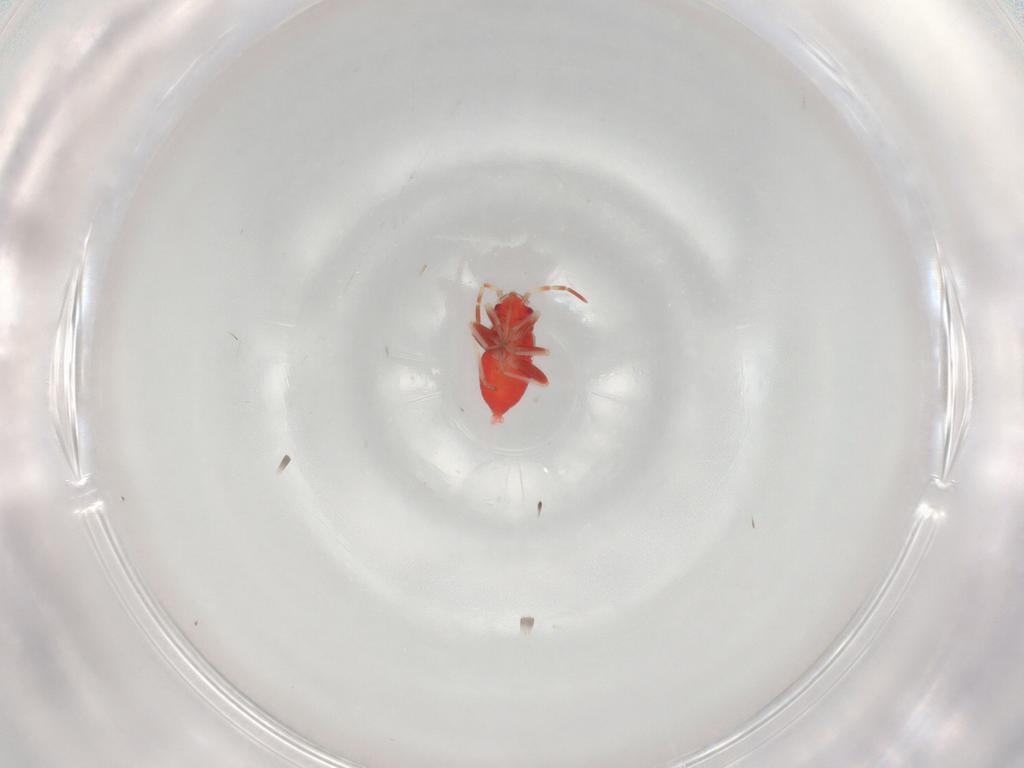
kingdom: Animalia
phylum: Arthropoda
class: Insecta
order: Hemiptera
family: Miridae
